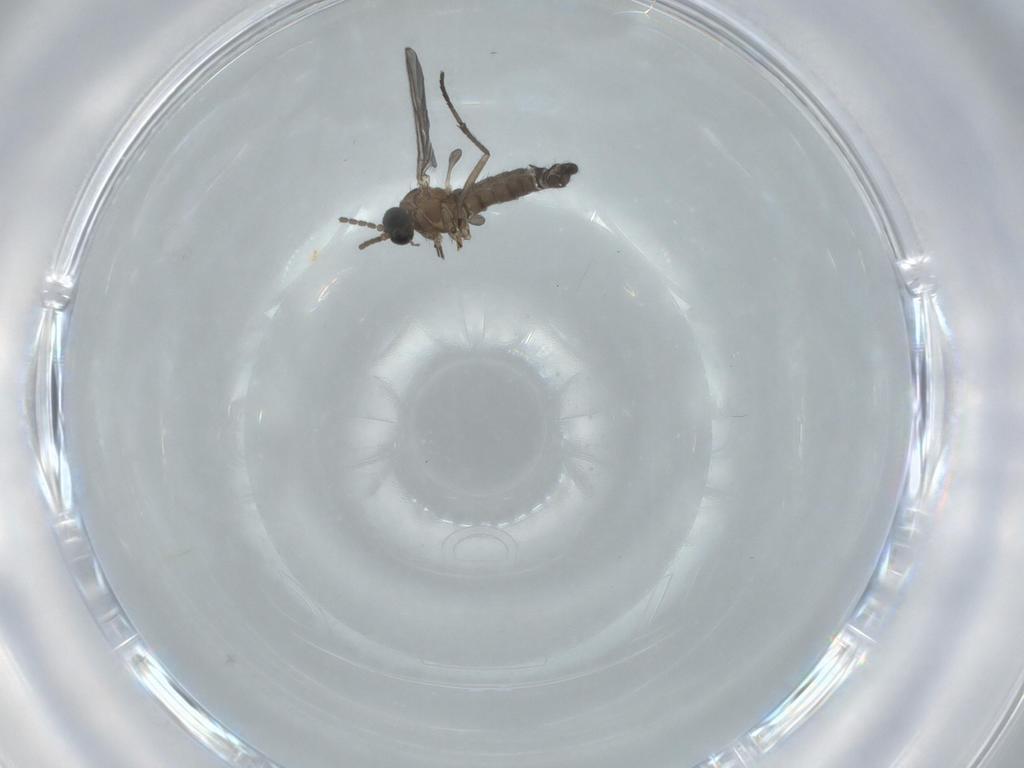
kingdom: Animalia
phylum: Arthropoda
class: Insecta
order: Diptera
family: Sciaridae
